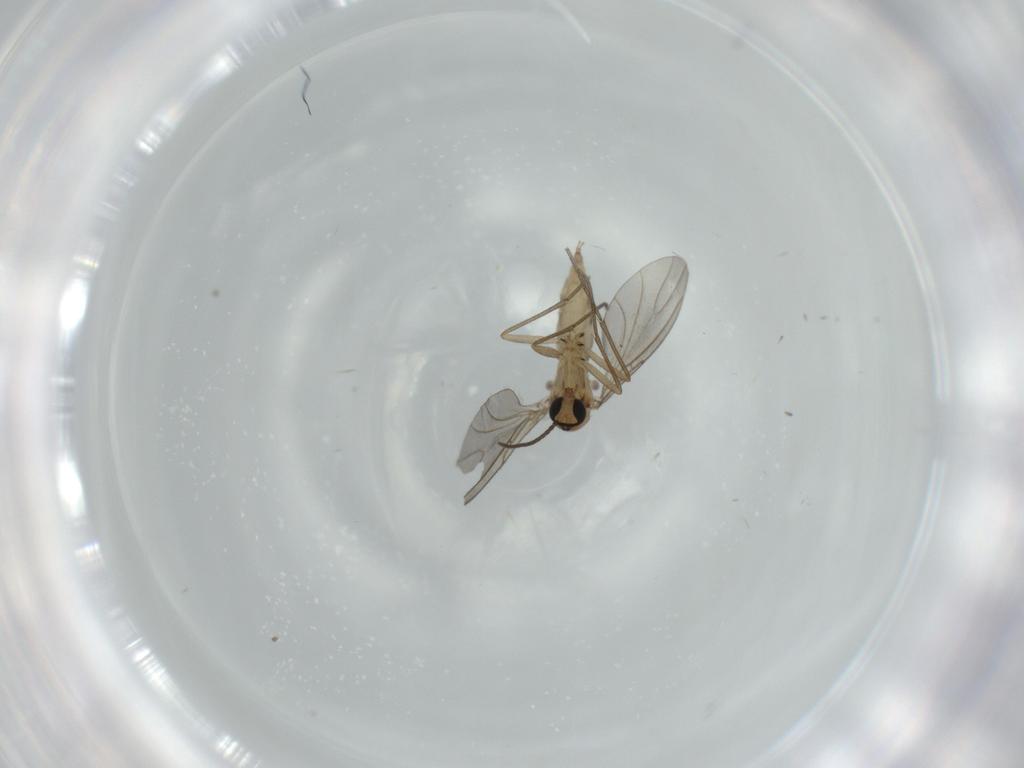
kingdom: Animalia
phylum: Arthropoda
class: Insecta
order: Diptera
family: Sciaridae
